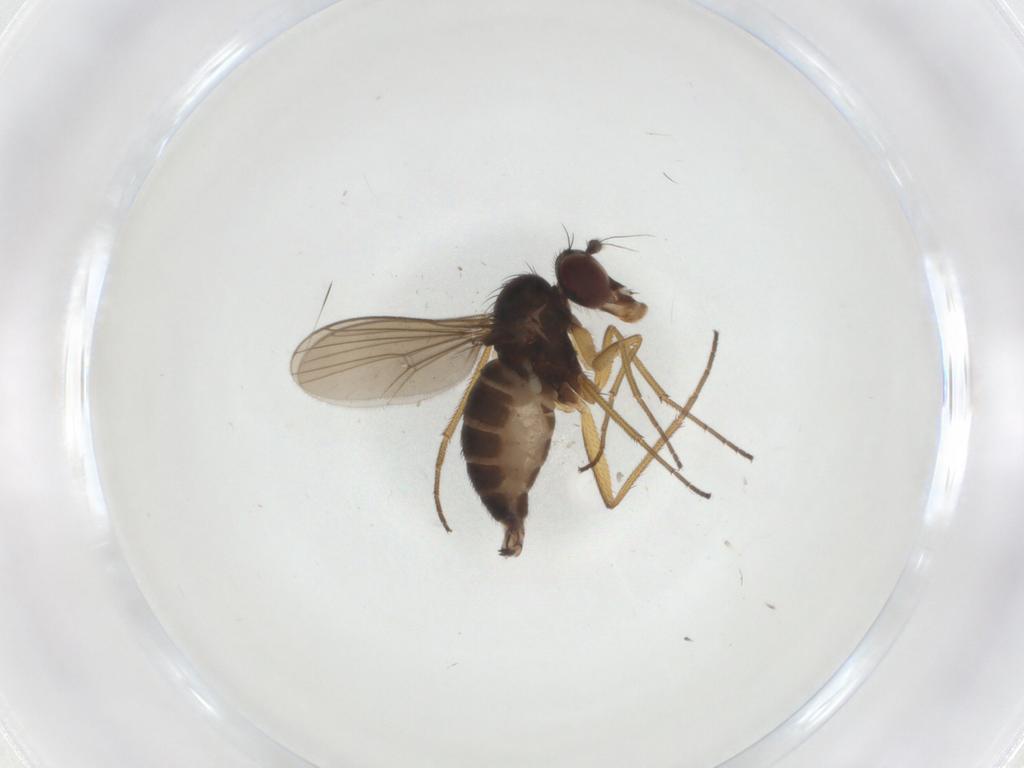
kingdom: Animalia
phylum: Arthropoda
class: Insecta
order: Diptera
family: Dolichopodidae
